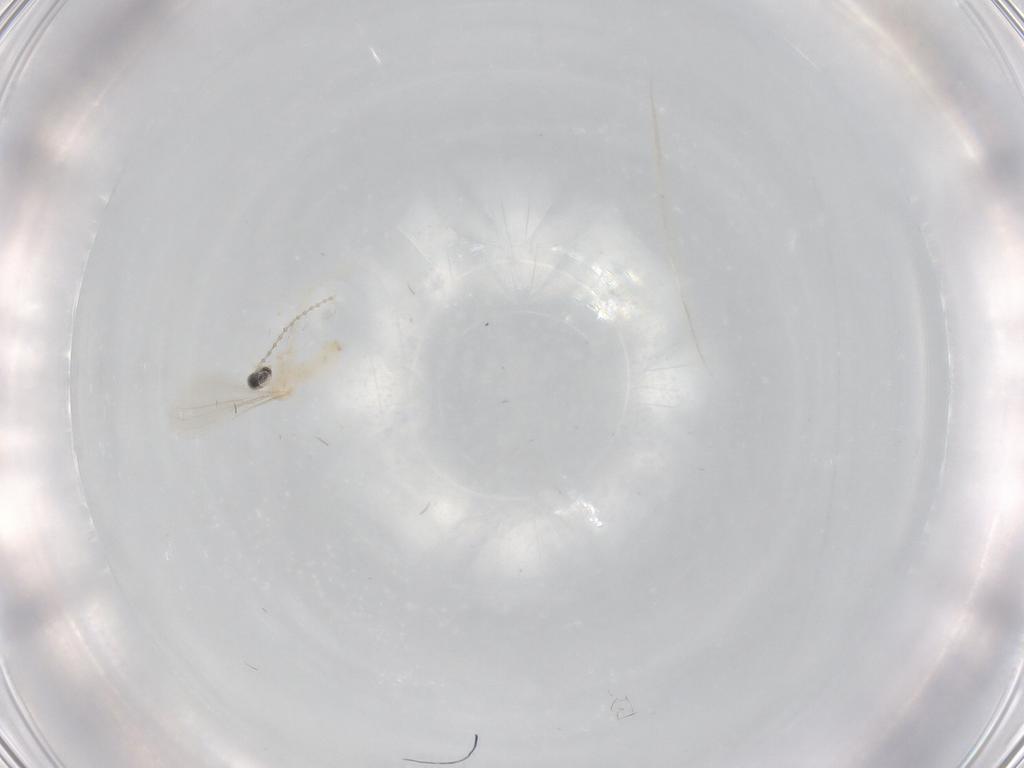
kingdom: Animalia
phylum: Arthropoda
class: Insecta
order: Diptera
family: Cecidomyiidae
